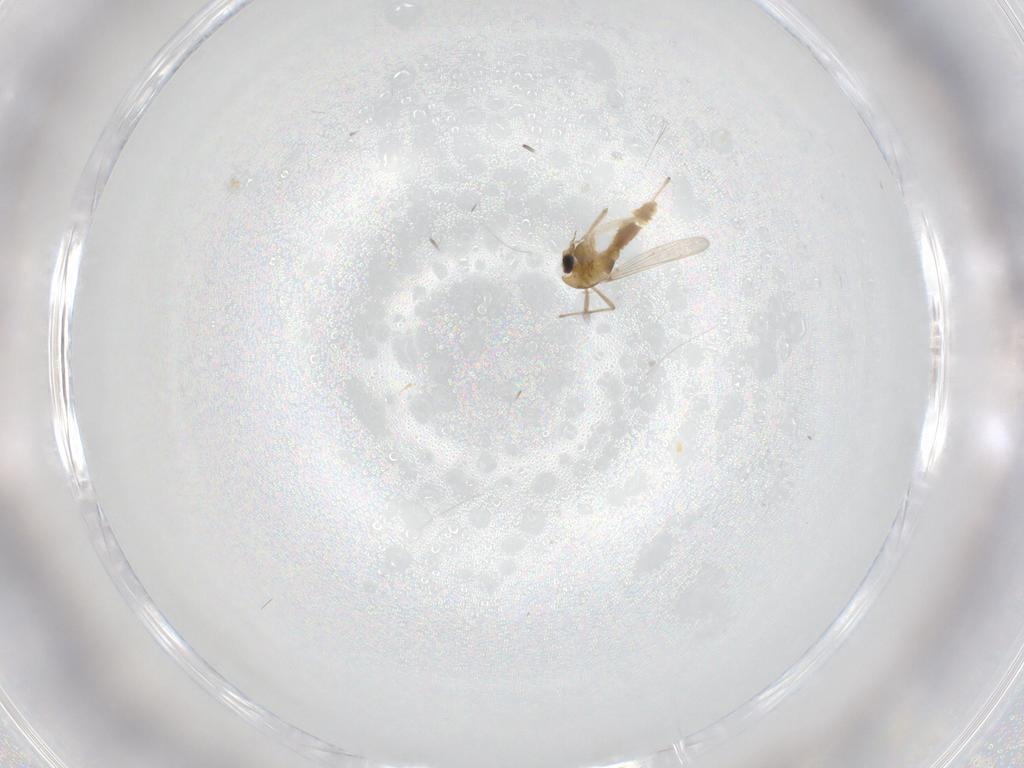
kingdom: Animalia
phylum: Arthropoda
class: Insecta
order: Diptera
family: Chironomidae
